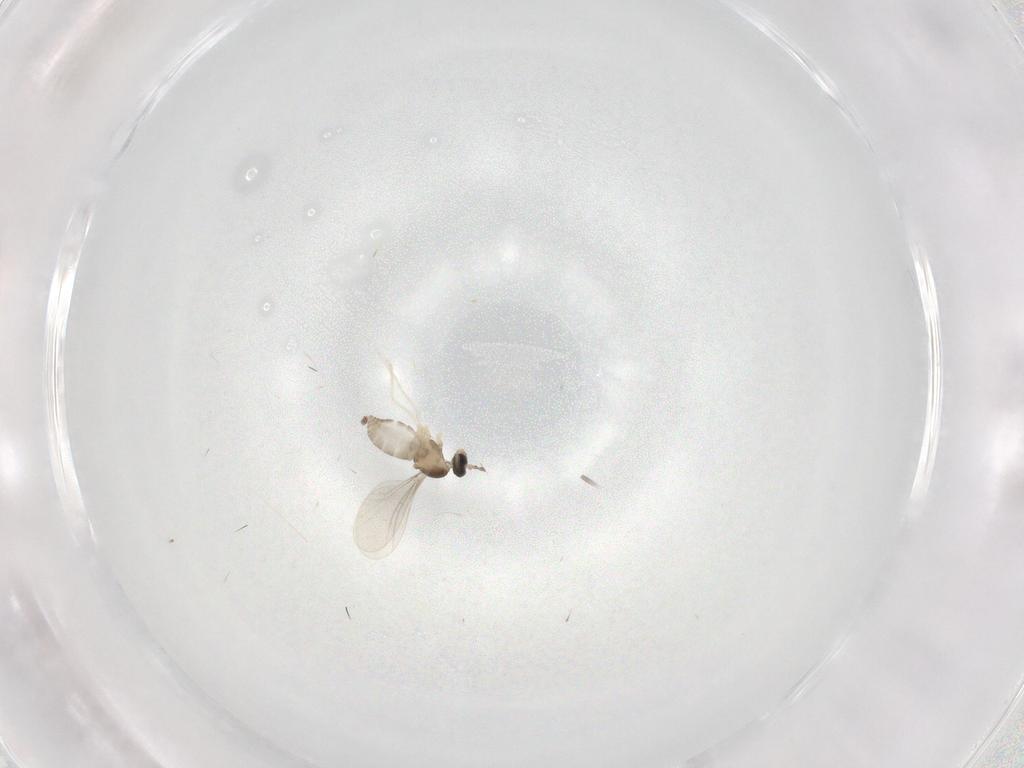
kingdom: Animalia
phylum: Arthropoda
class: Insecta
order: Diptera
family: Cecidomyiidae
